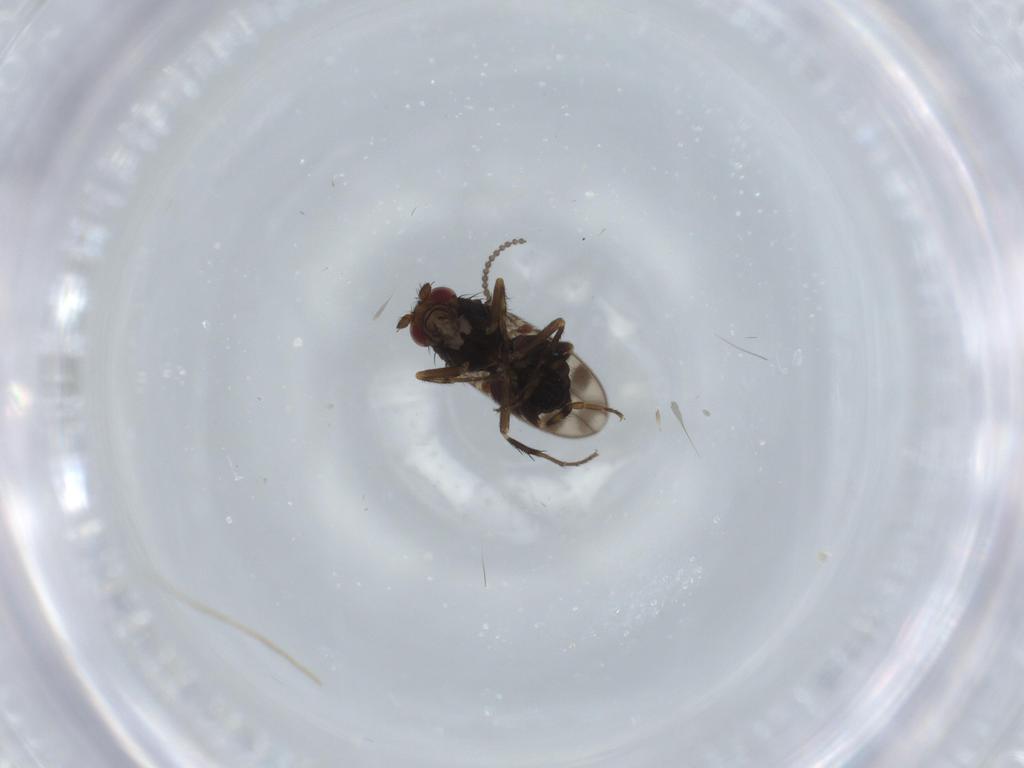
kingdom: Animalia
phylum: Arthropoda
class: Insecta
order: Diptera
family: Sphaeroceridae
